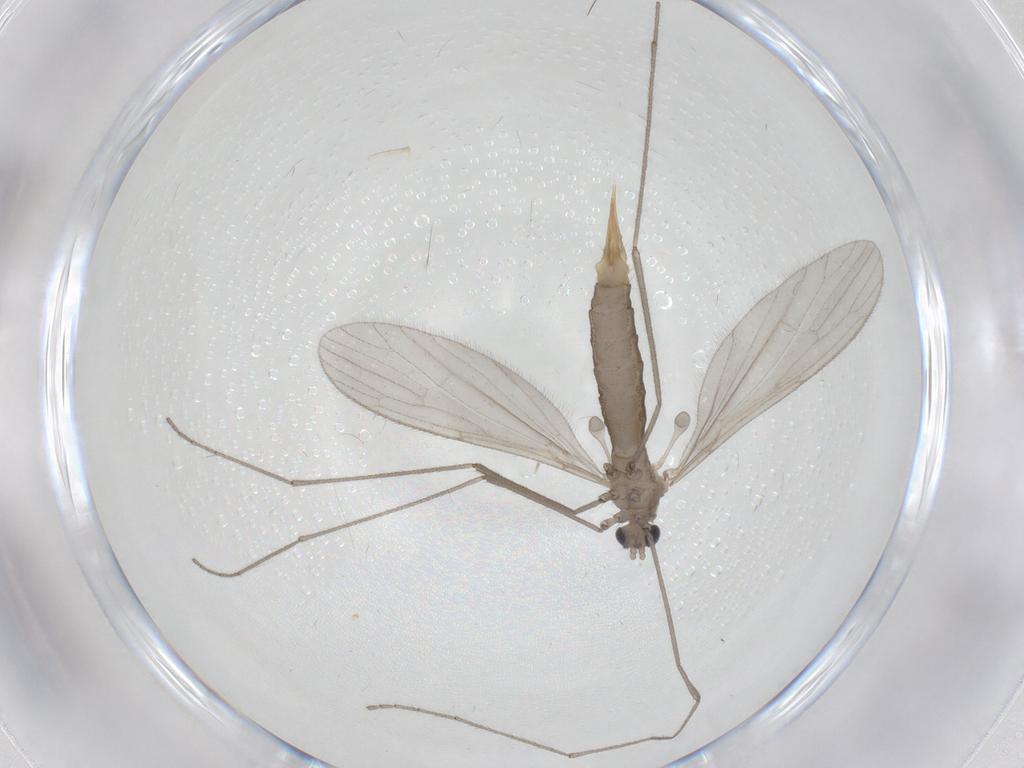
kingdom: Animalia
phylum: Arthropoda
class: Insecta
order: Diptera
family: Limoniidae
